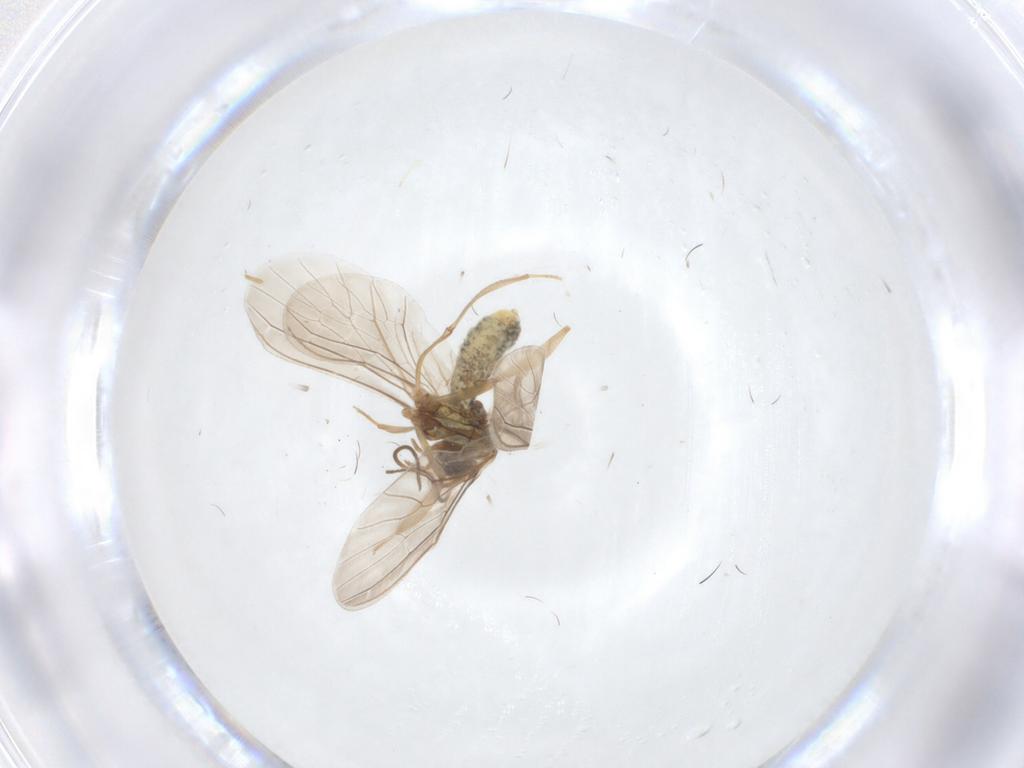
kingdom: Animalia
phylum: Arthropoda
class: Insecta
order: Neuroptera
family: Coniopterygidae
